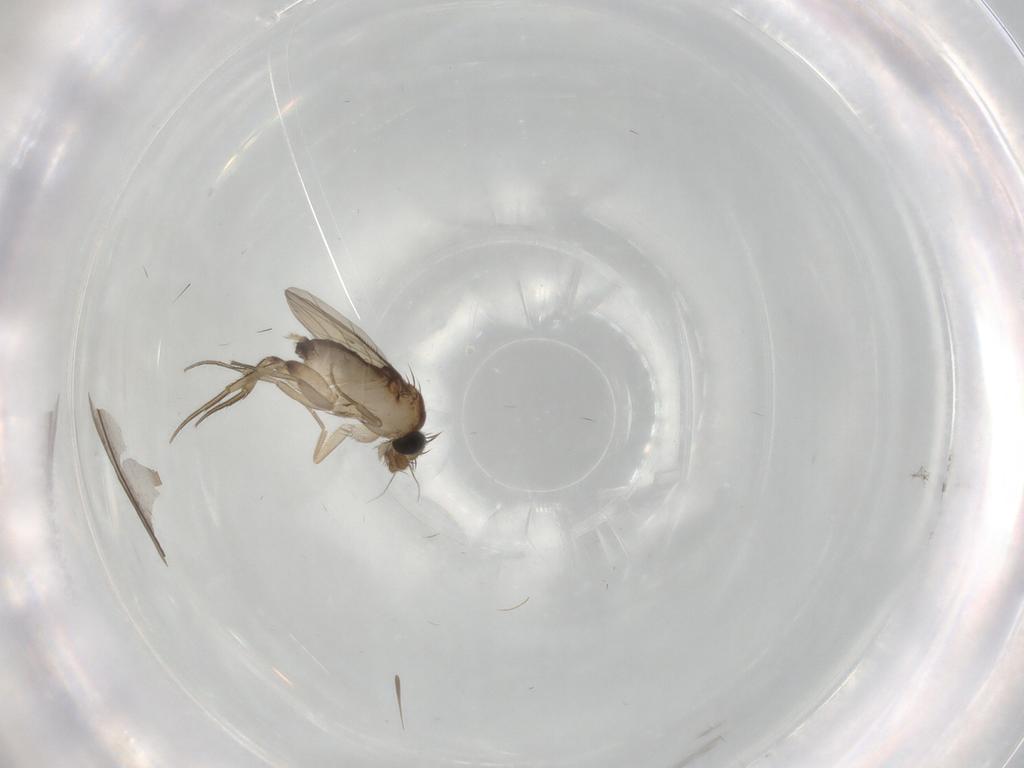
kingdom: Animalia
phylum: Arthropoda
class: Insecta
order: Diptera
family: Phoridae
